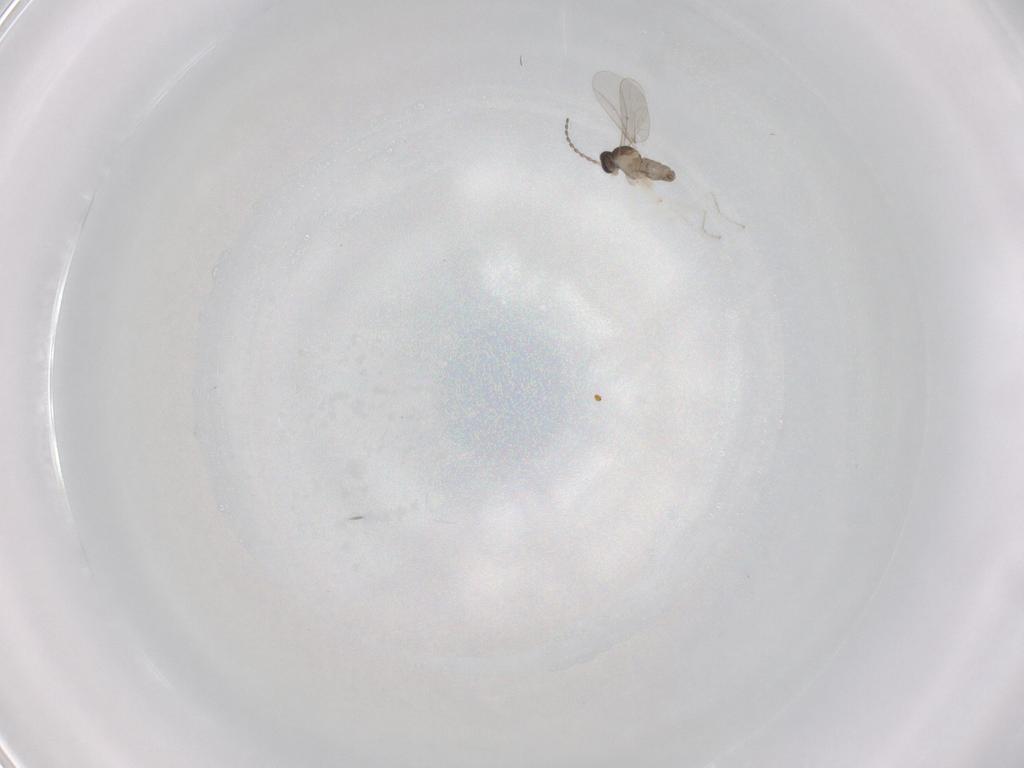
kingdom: Animalia
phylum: Arthropoda
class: Insecta
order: Diptera
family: Cecidomyiidae
